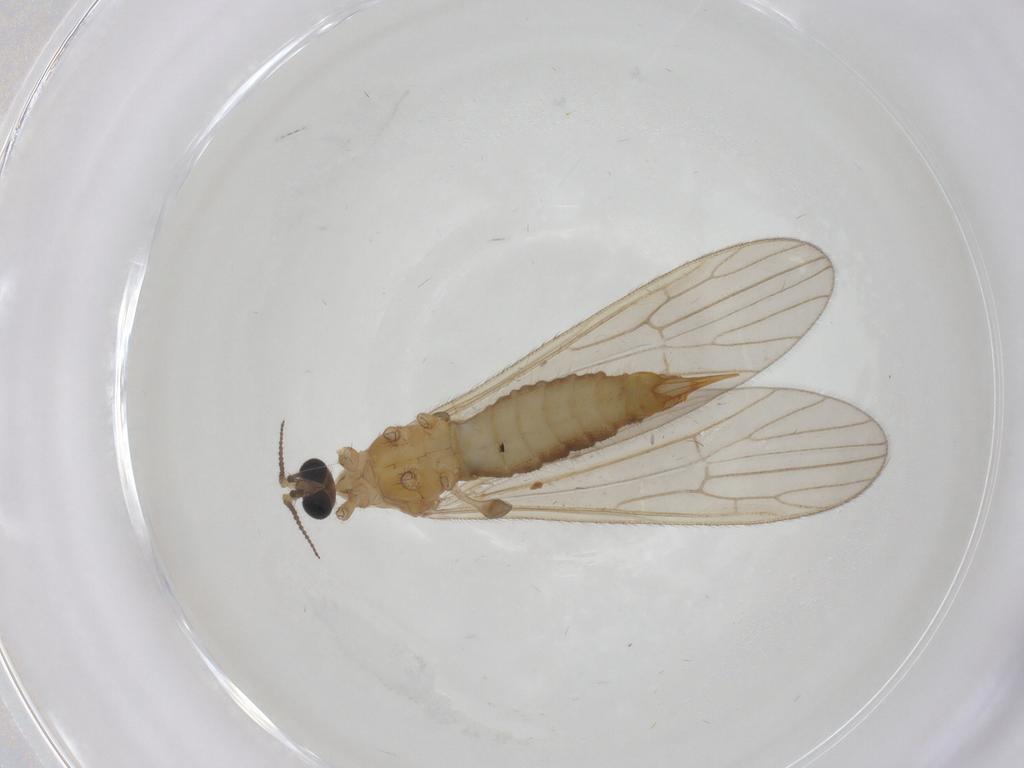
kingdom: Animalia
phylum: Arthropoda
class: Insecta
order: Diptera
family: Limoniidae
